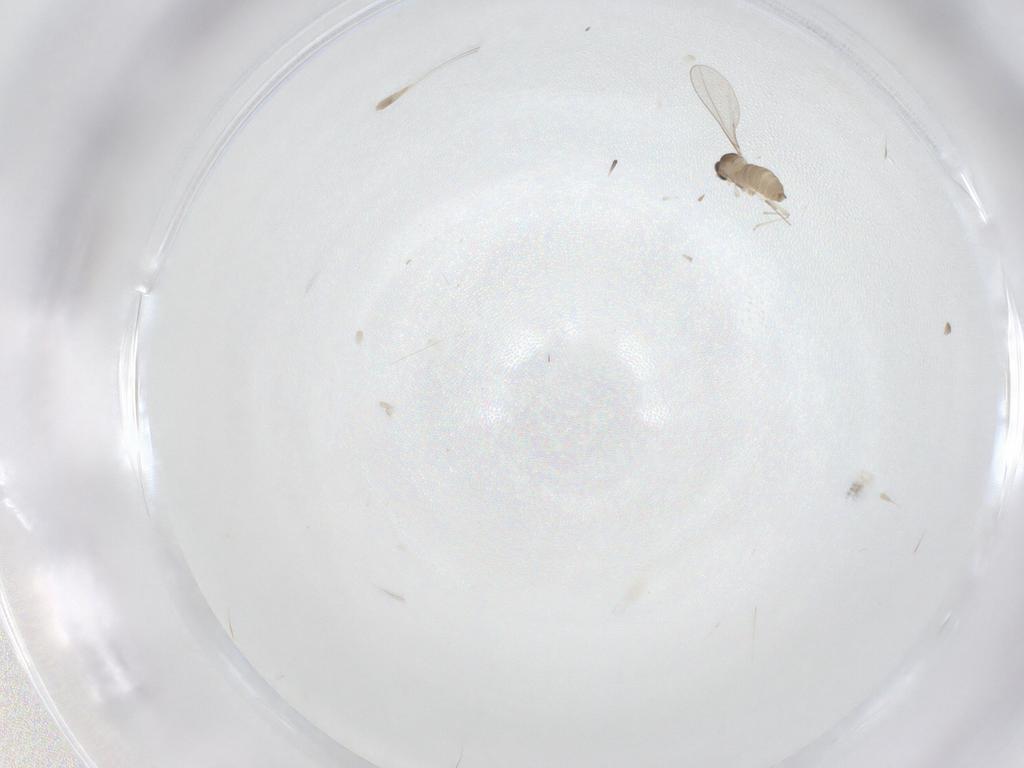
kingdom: Animalia
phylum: Arthropoda
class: Insecta
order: Diptera
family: Cecidomyiidae
